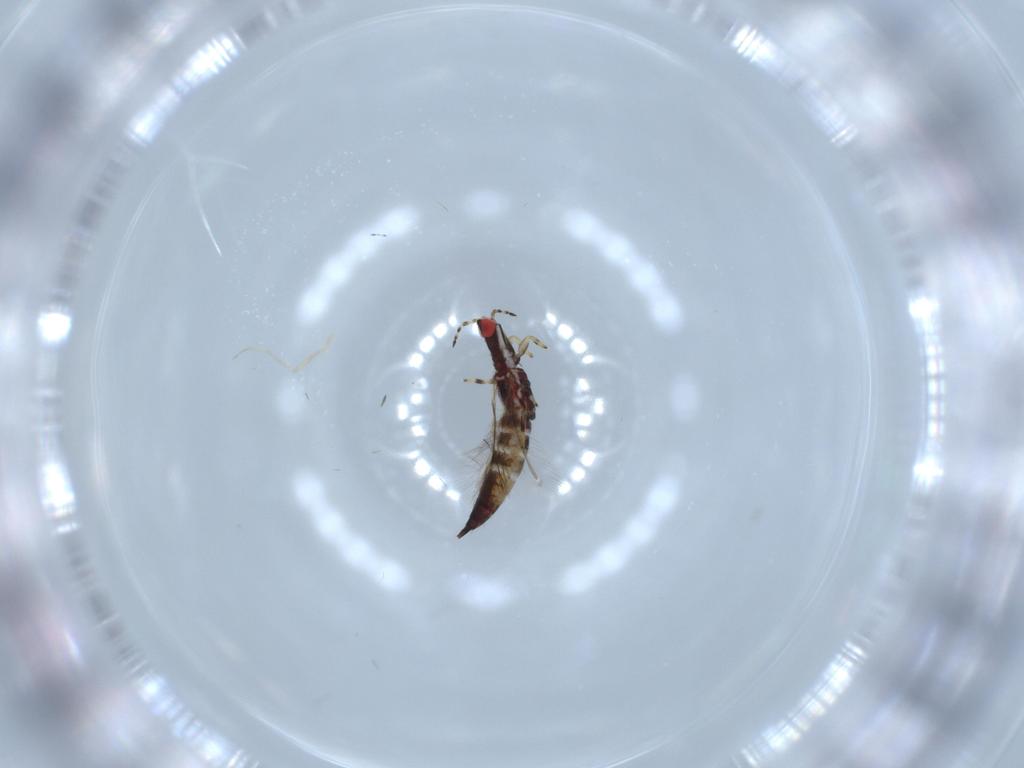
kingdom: Animalia
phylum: Arthropoda
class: Insecta
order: Thysanoptera
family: Phlaeothripidae
